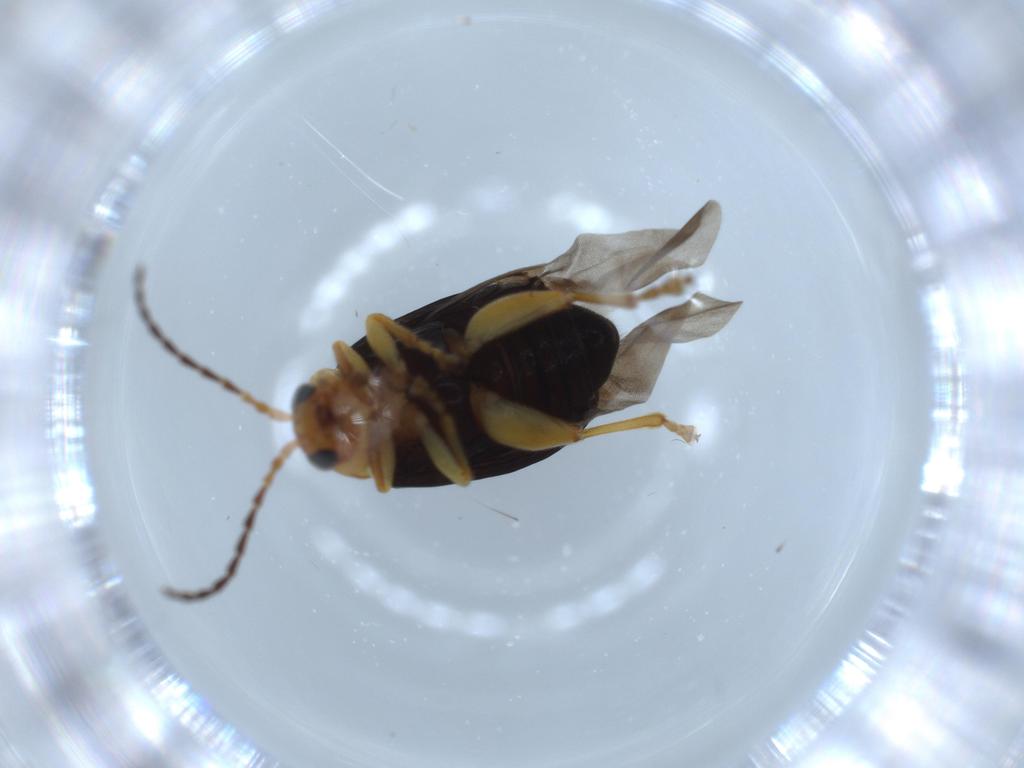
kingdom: Animalia
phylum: Arthropoda
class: Insecta
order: Coleoptera
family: Chrysomelidae
